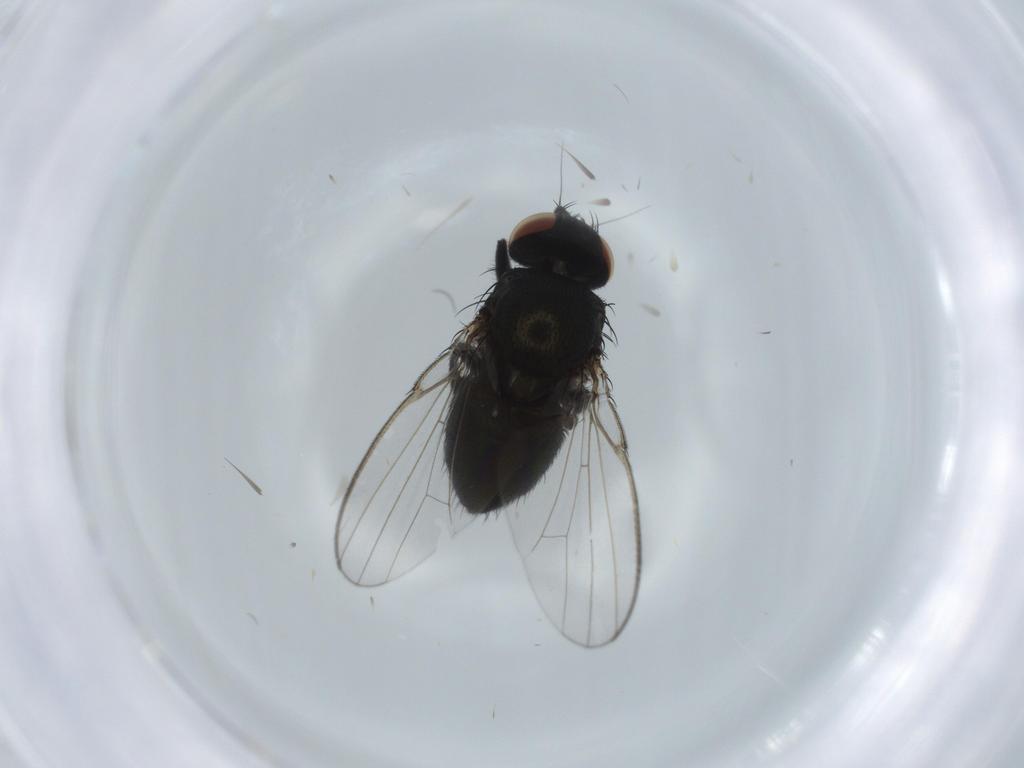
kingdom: Animalia
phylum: Arthropoda
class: Insecta
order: Diptera
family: Milichiidae
